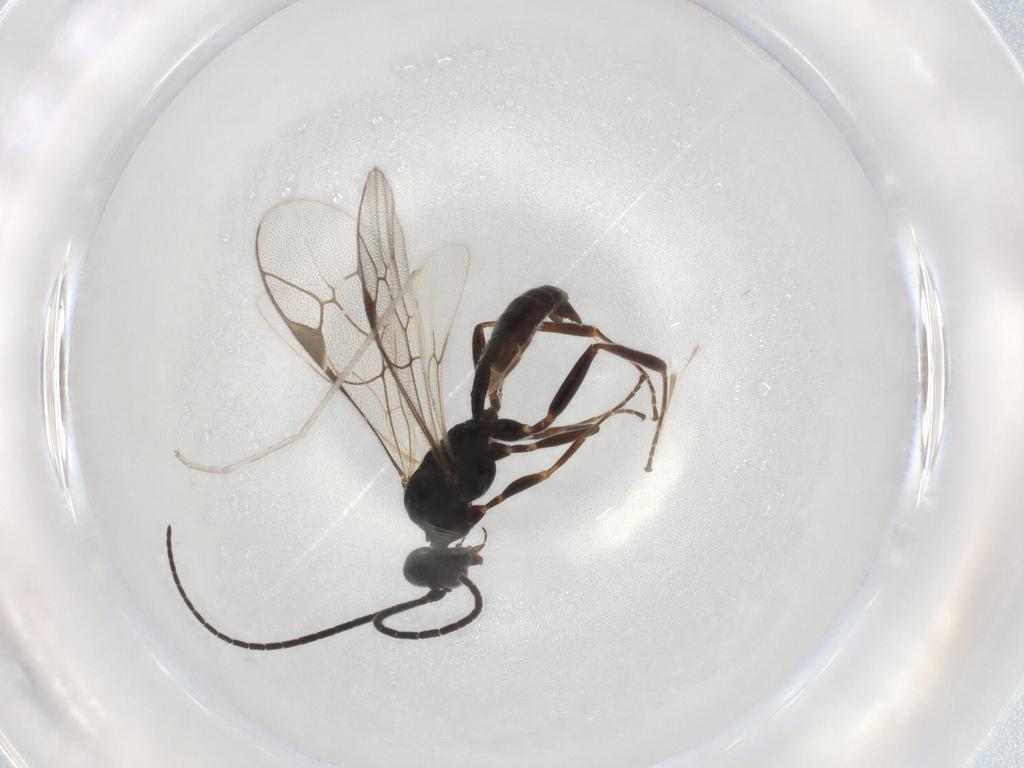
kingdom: Animalia
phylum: Arthropoda
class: Insecta
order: Hymenoptera
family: Ichneumonidae
